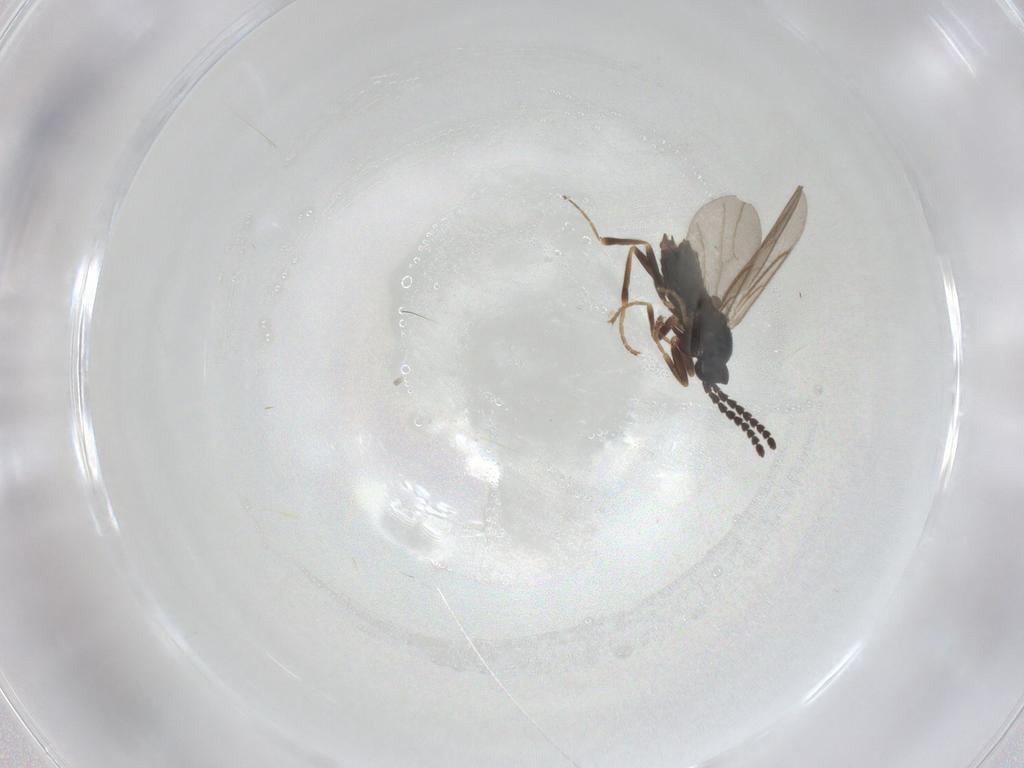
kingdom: Animalia
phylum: Arthropoda
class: Insecta
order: Diptera
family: Scatopsidae
